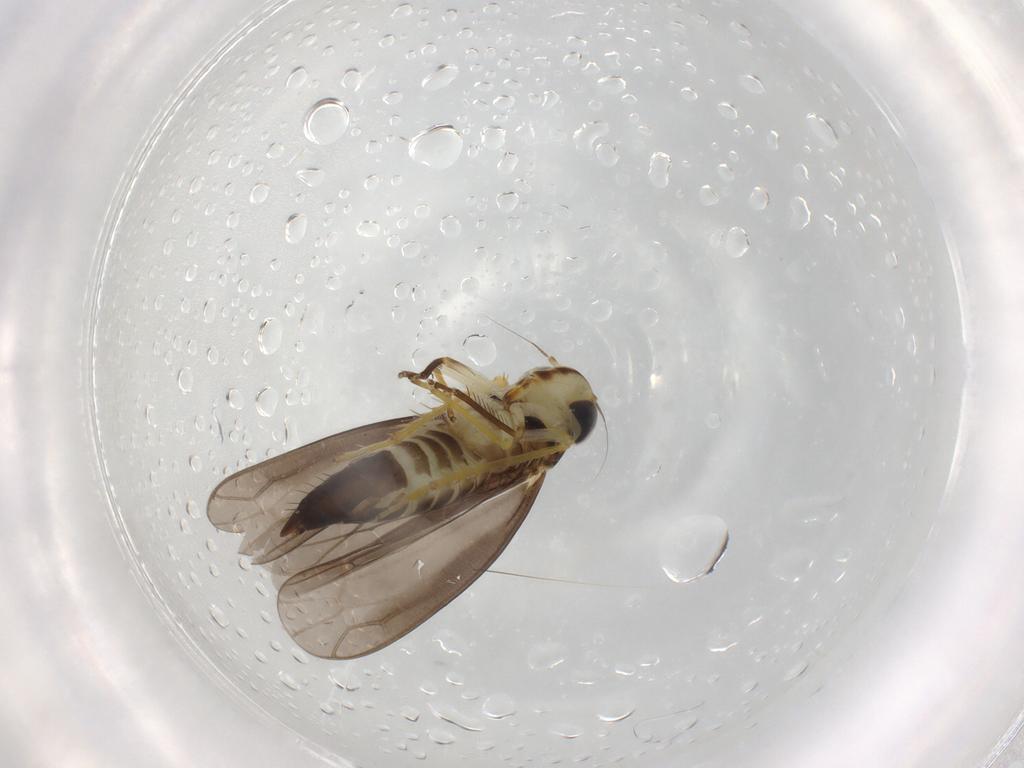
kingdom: Animalia
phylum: Arthropoda
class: Insecta
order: Hemiptera
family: Cicadellidae
